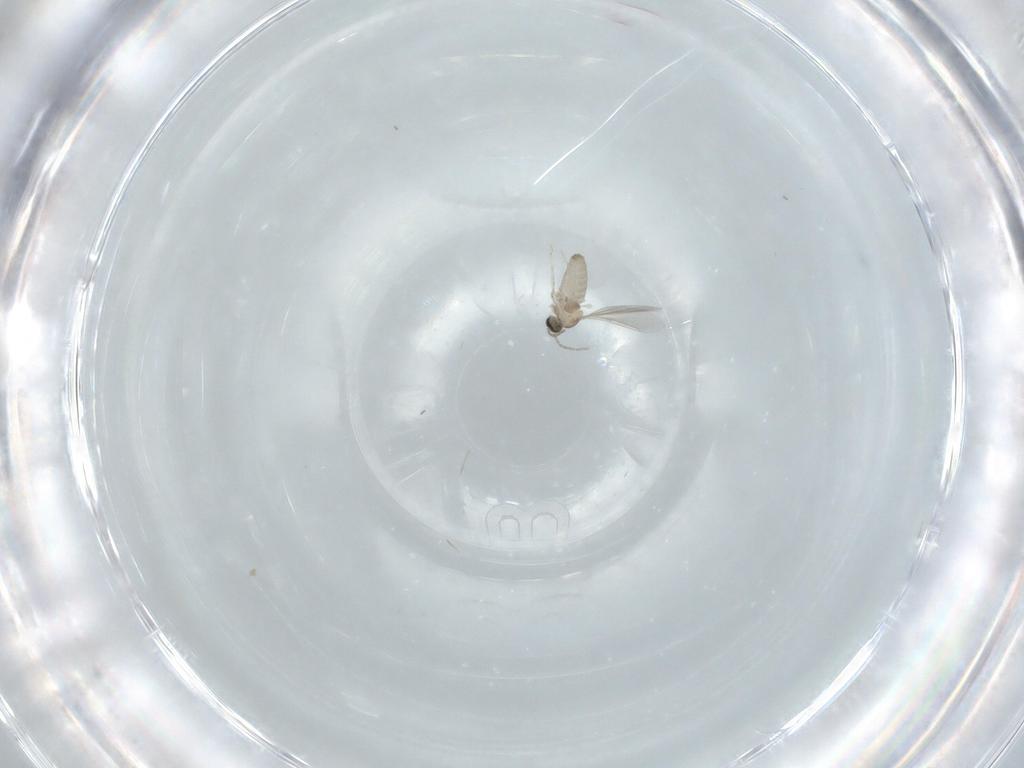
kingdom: Animalia
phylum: Arthropoda
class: Insecta
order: Diptera
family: Cecidomyiidae
